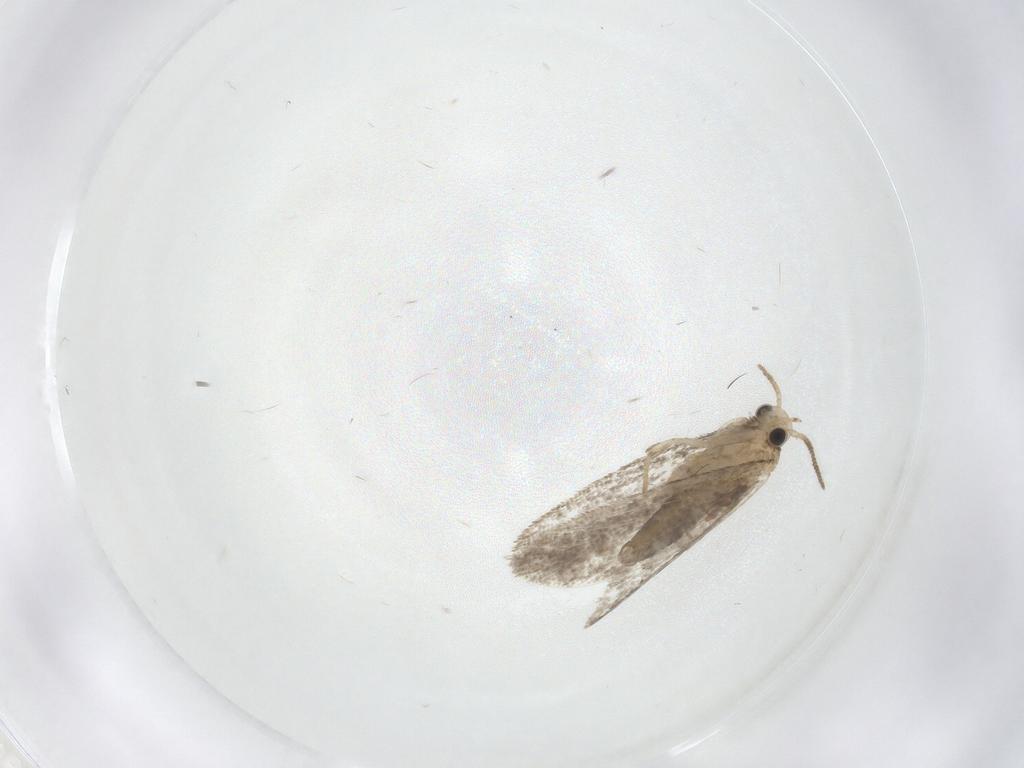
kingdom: Animalia
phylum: Arthropoda
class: Insecta
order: Lepidoptera
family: Psychidae
